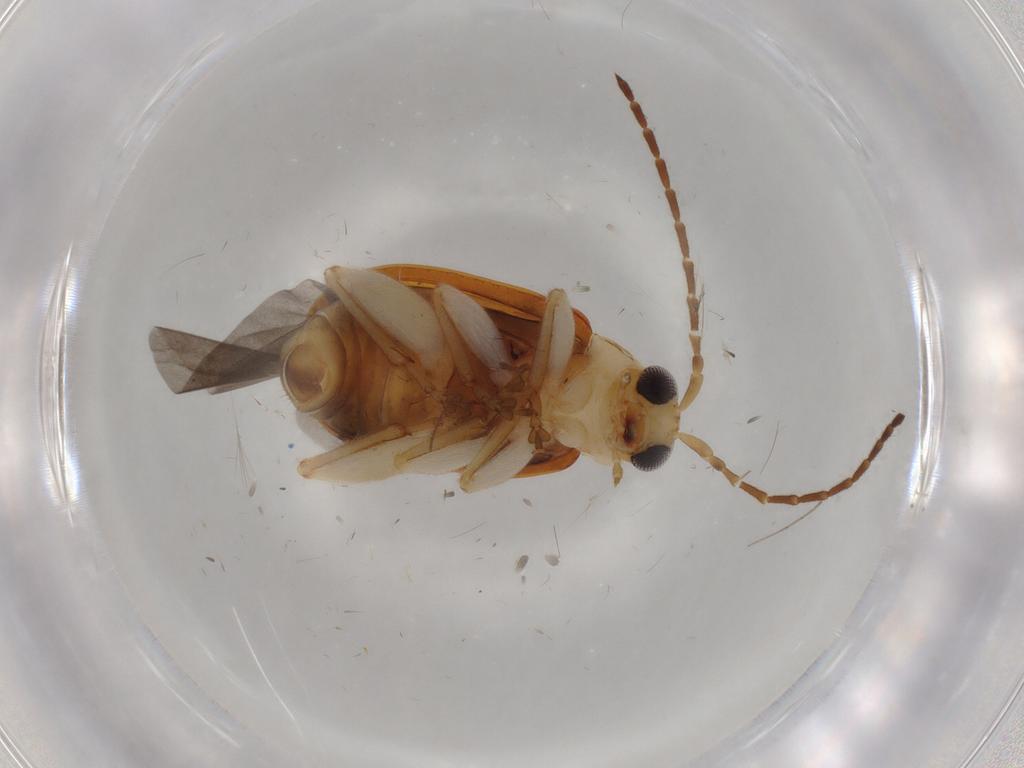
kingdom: Animalia
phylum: Arthropoda
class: Insecta
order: Coleoptera
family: Chrysomelidae
